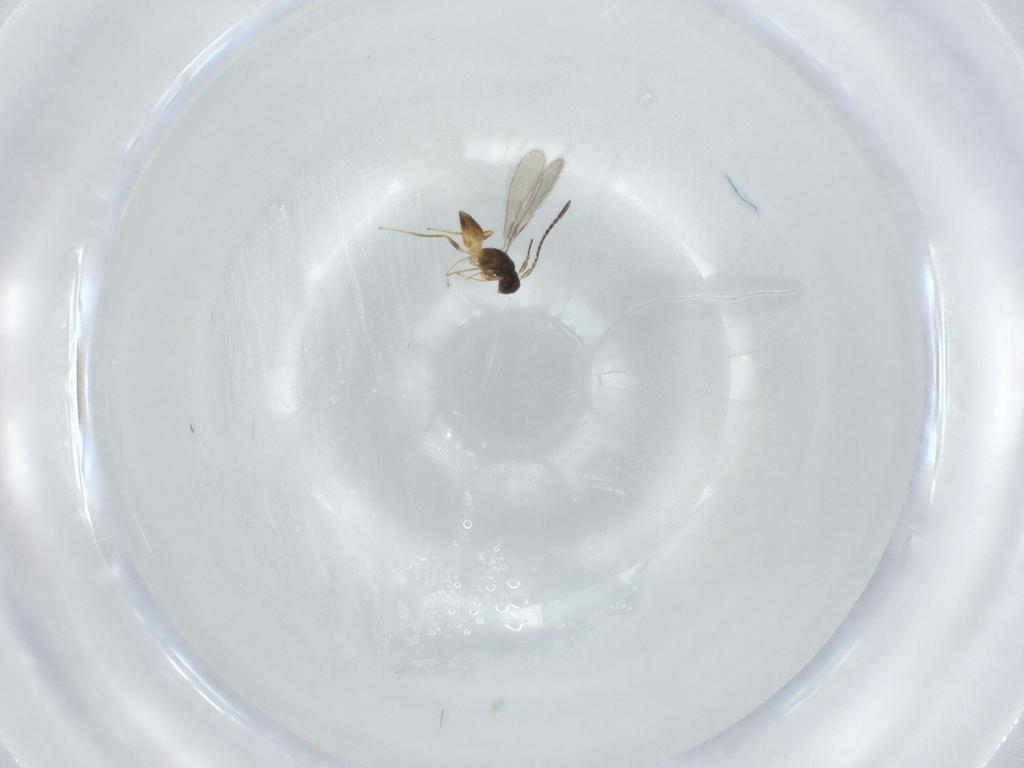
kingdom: Animalia
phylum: Arthropoda
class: Insecta
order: Hymenoptera
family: Mymaridae
